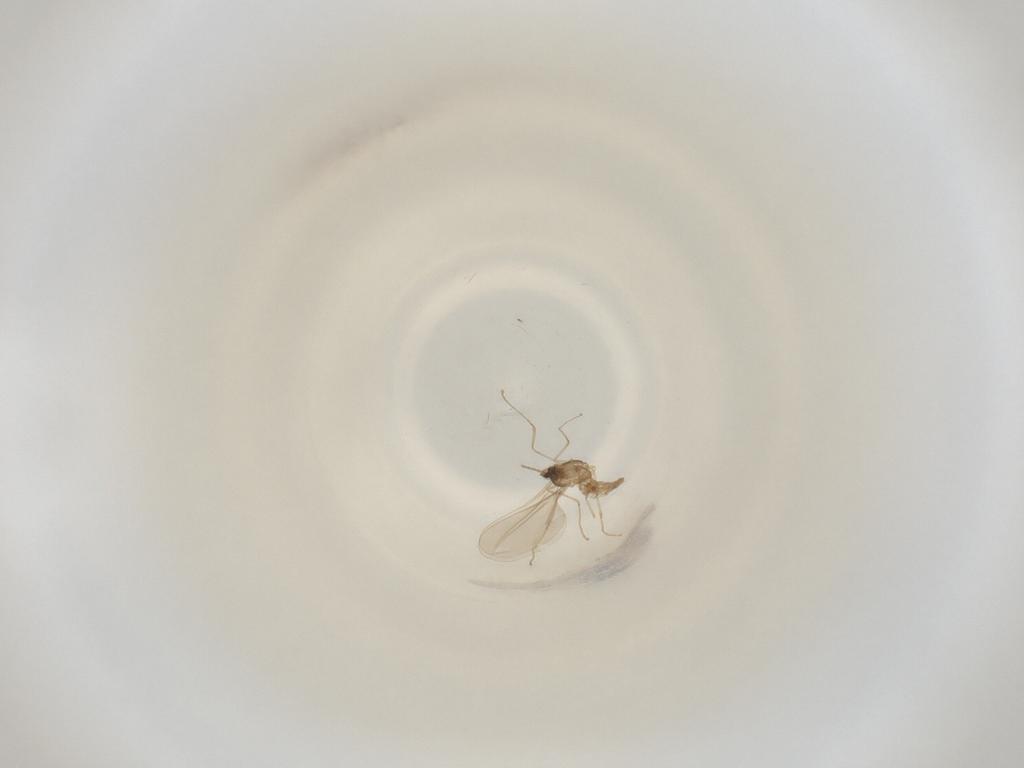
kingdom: Animalia
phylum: Arthropoda
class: Insecta
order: Diptera
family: Cecidomyiidae
